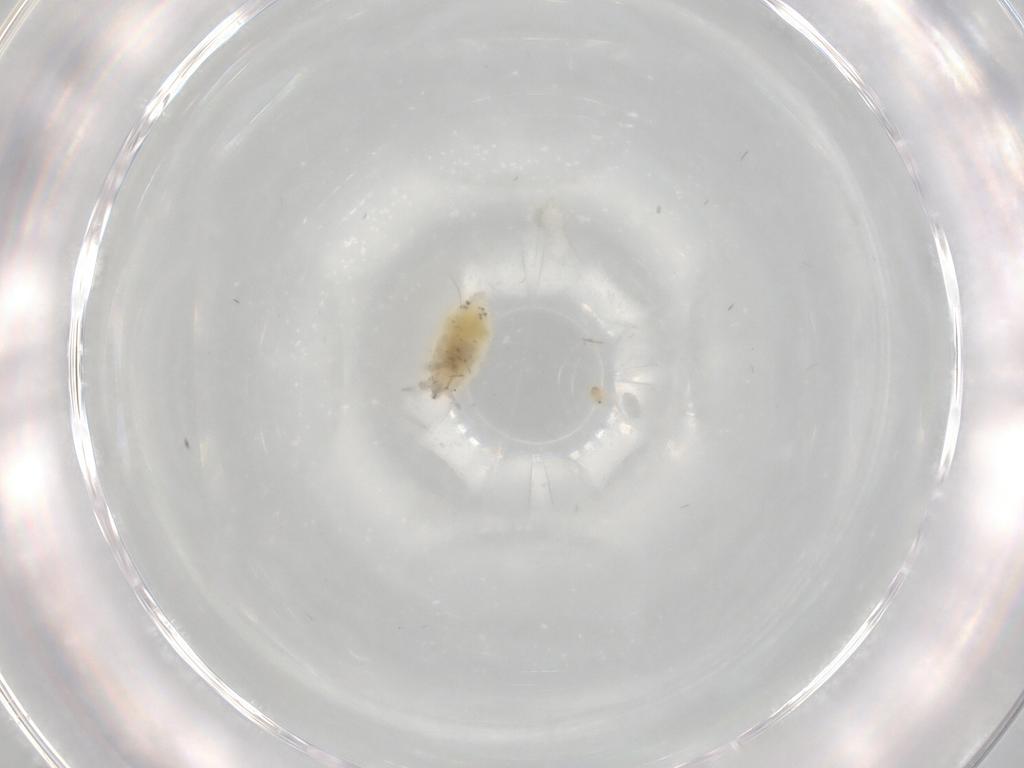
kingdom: Animalia
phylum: Arthropoda
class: Insecta
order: Neuroptera
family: Coniopterygidae
